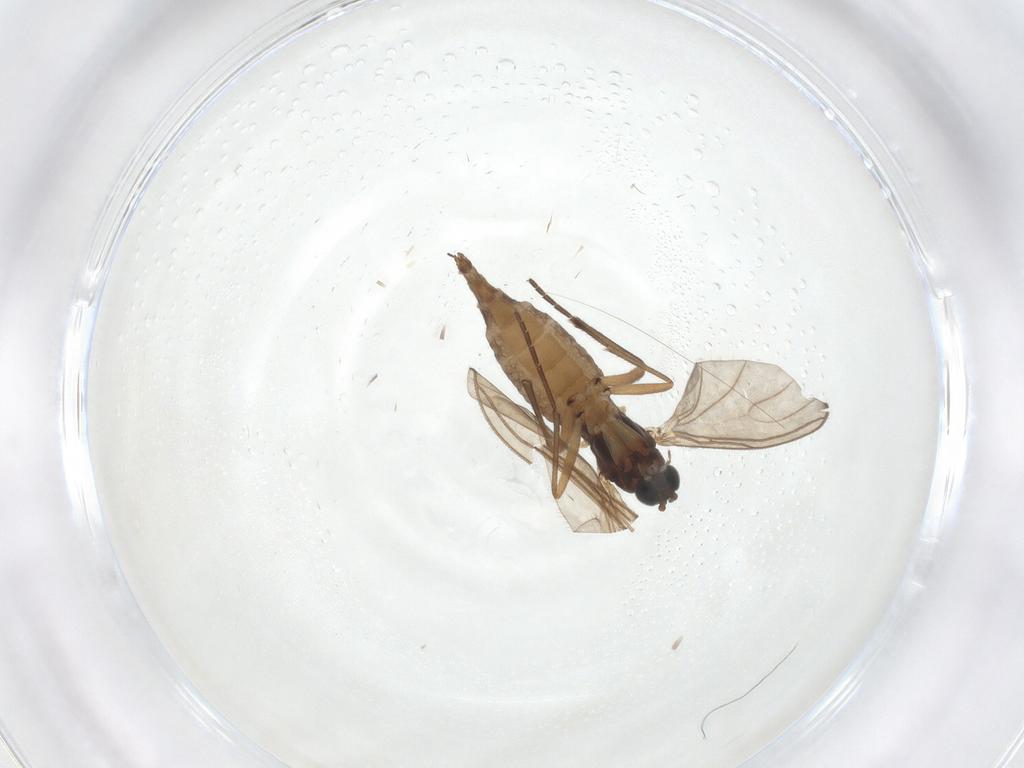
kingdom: Animalia
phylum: Arthropoda
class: Insecta
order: Diptera
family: Sciaridae
